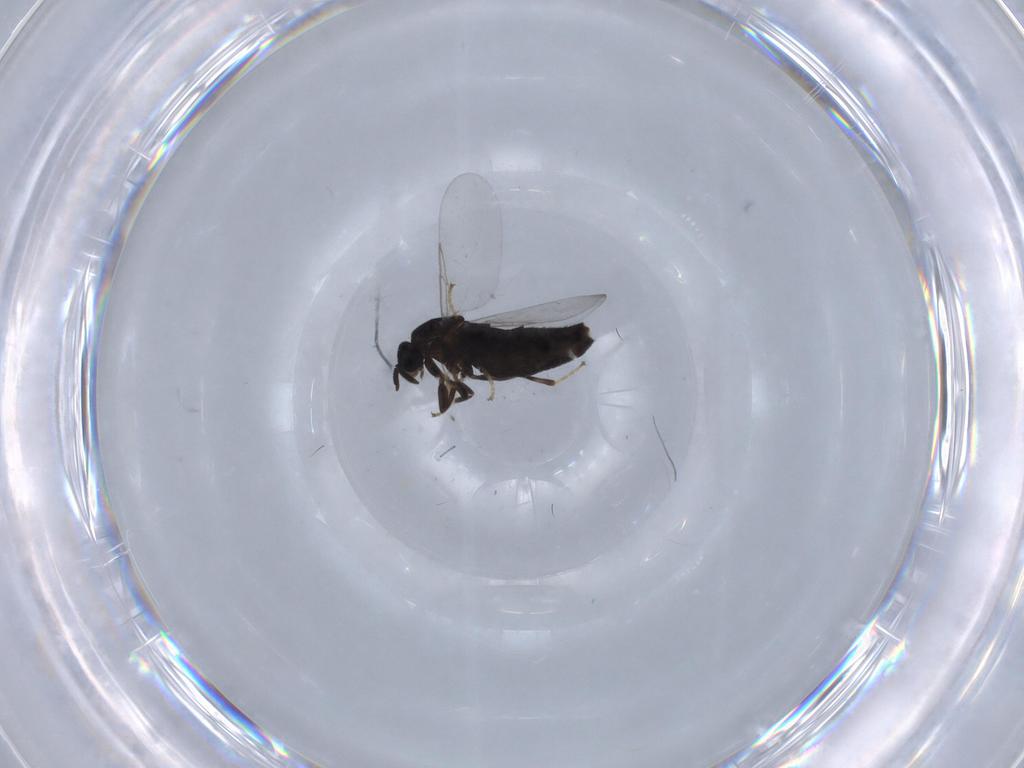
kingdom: Animalia
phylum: Arthropoda
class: Insecta
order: Diptera
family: Scatopsidae
